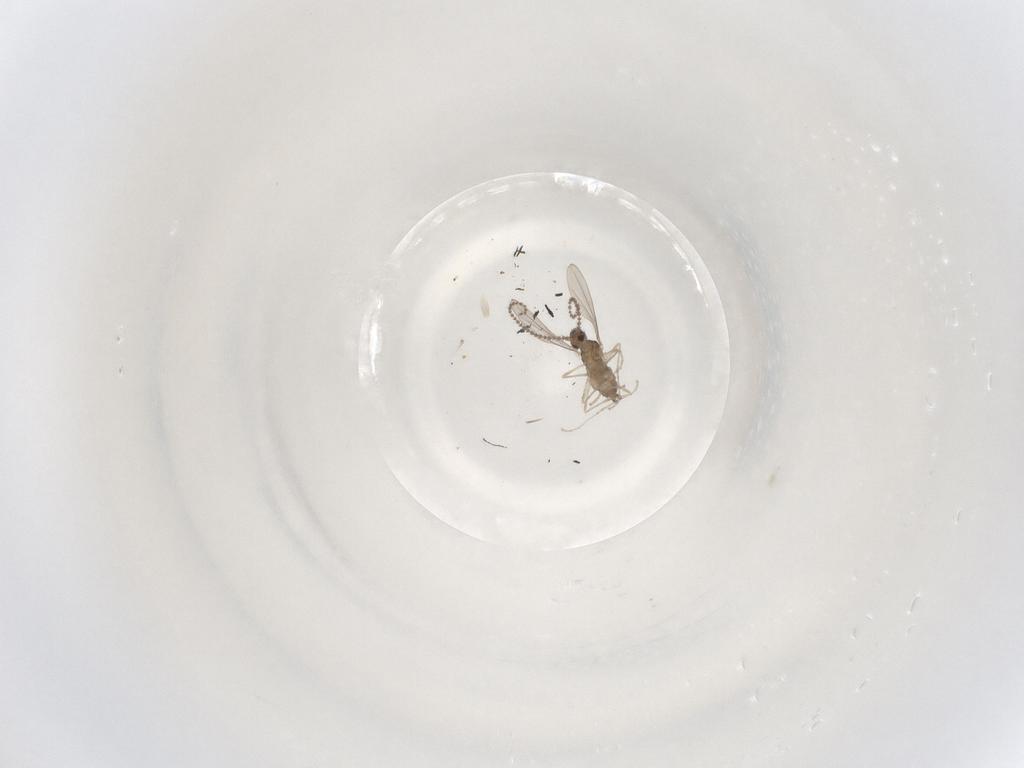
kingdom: Animalia
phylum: Arthropoda
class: Insecta
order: Diptera
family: Cecidomyiidae
